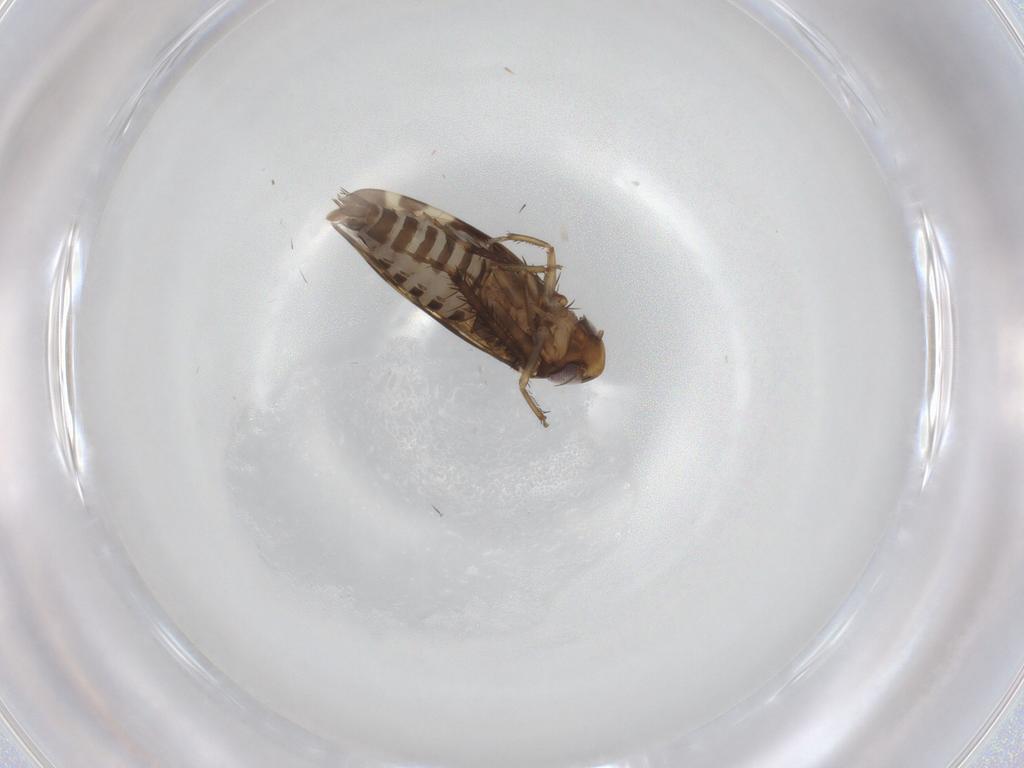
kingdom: Animalia
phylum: Arthropoda
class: Insecta
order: Hemiptera
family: Cicadellidae
